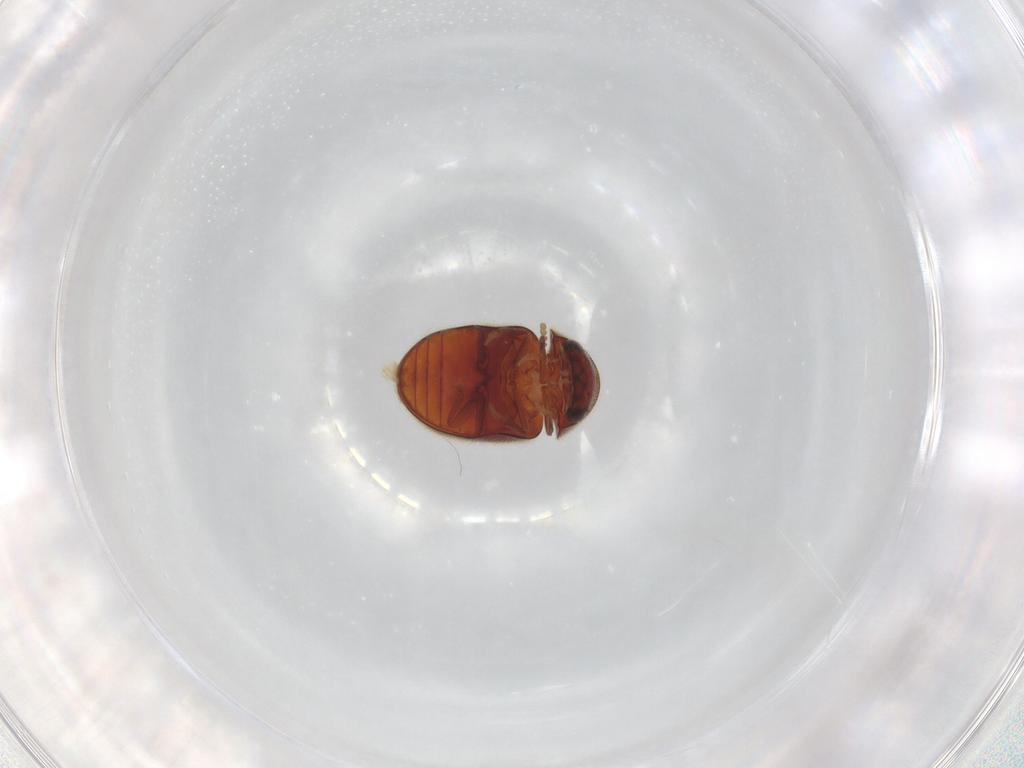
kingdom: Animalia
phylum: Arthropoda
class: Insecta
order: Coleoptera
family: Ptinidae
